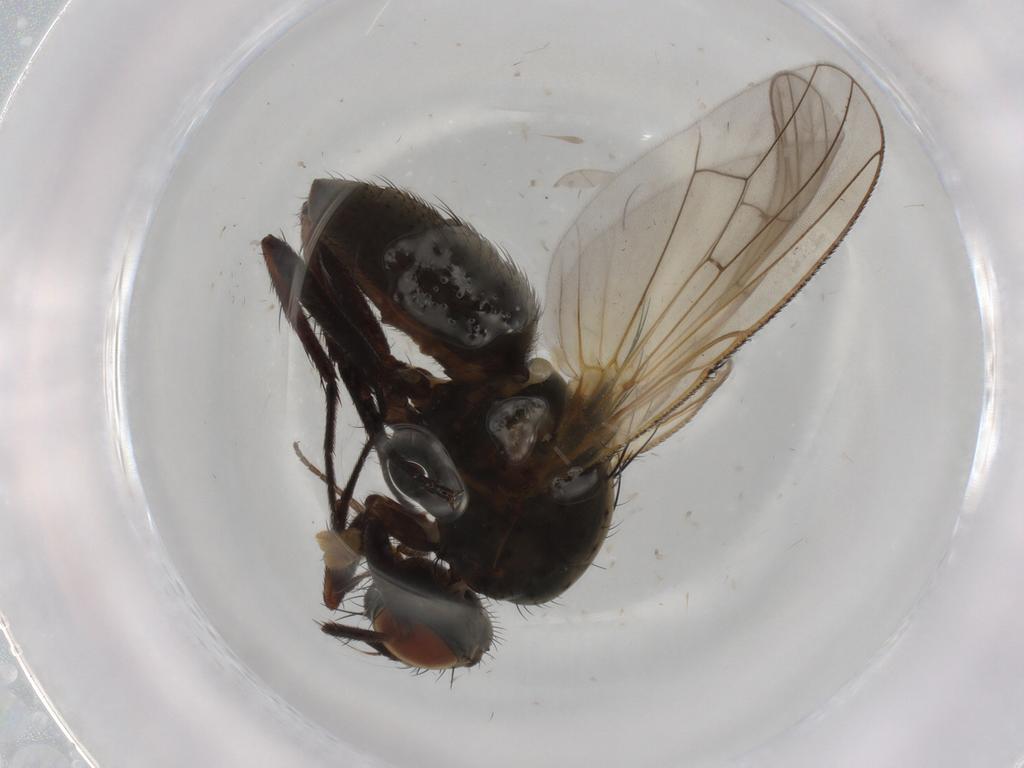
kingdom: Animalia
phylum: Arthropoda
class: Insecta
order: Diptera
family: Anthomyiidae
